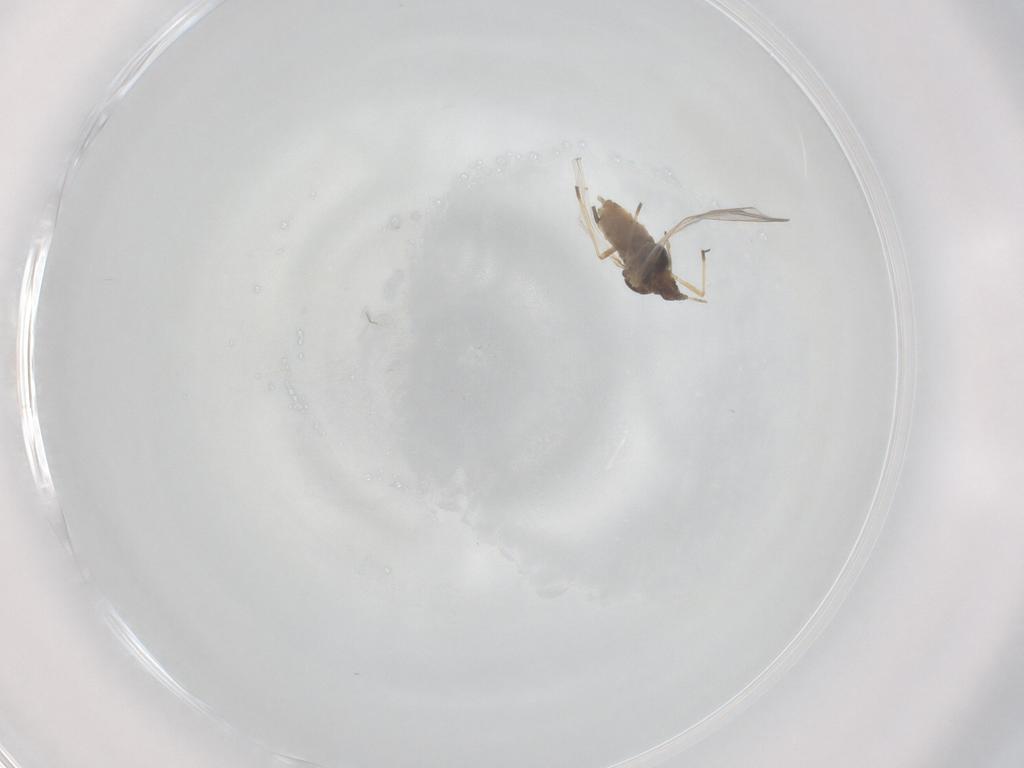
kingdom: Animalia
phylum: Arthropoda
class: Insecta
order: Hemiptera
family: Aphididae
